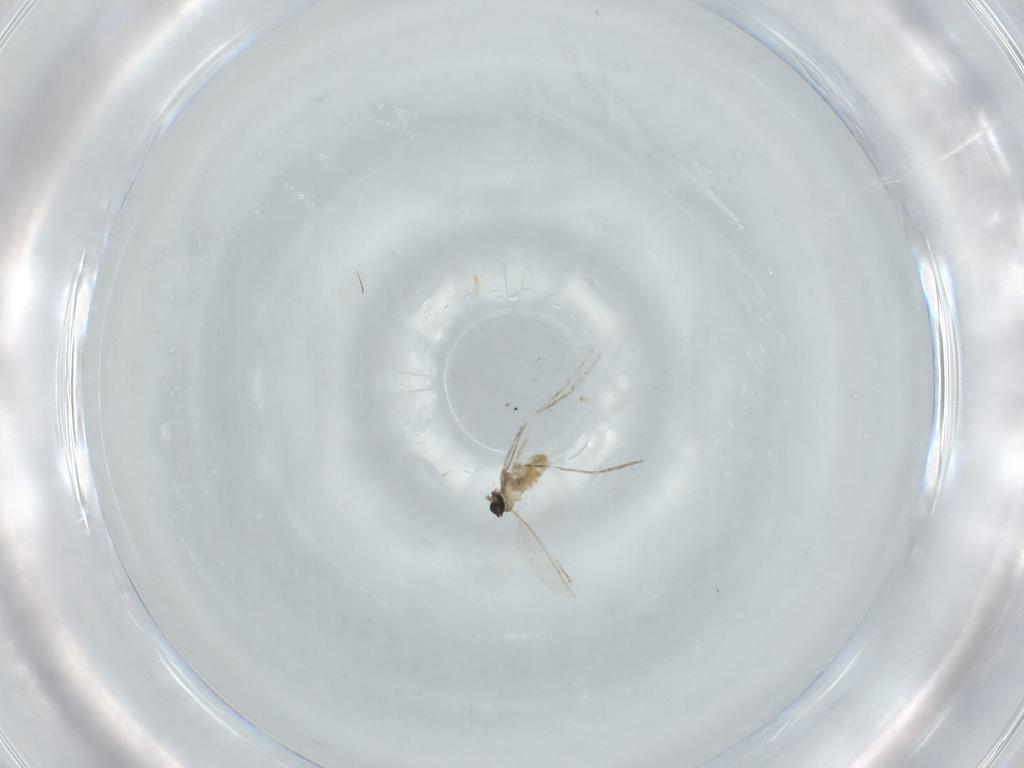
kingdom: Animalia
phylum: Arthropoda
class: Insecta
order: Diptera
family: Cecidomyiidae
